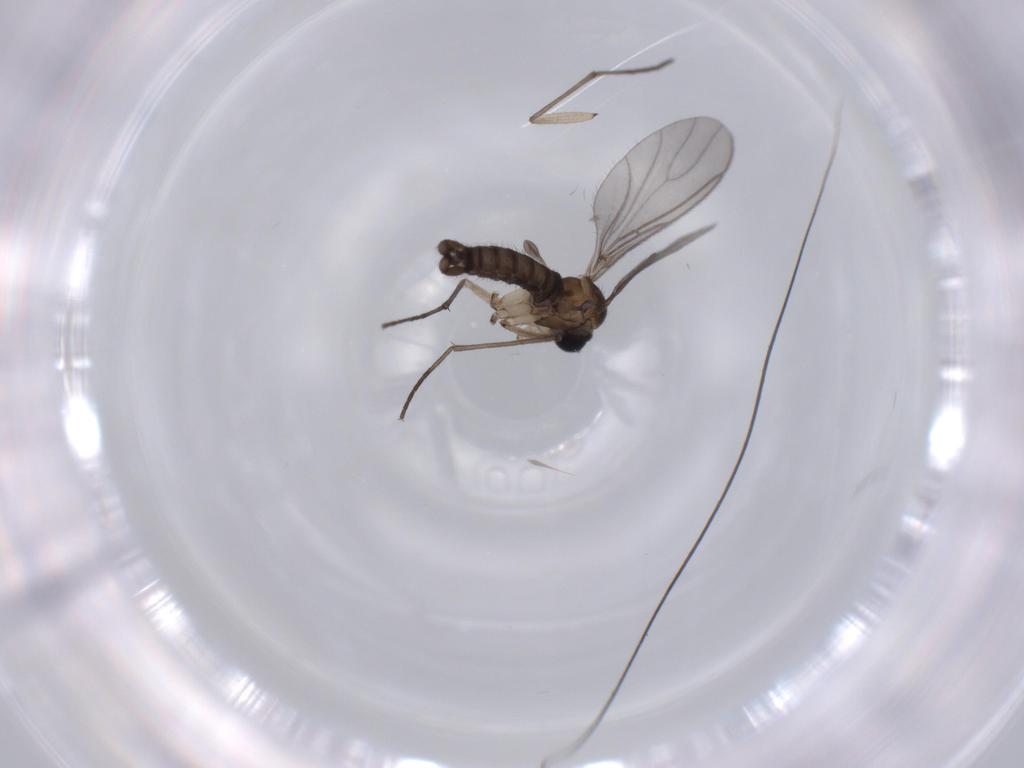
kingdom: Animalia
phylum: Arthropoda
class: Insecta
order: Diptera
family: Sciaridae
